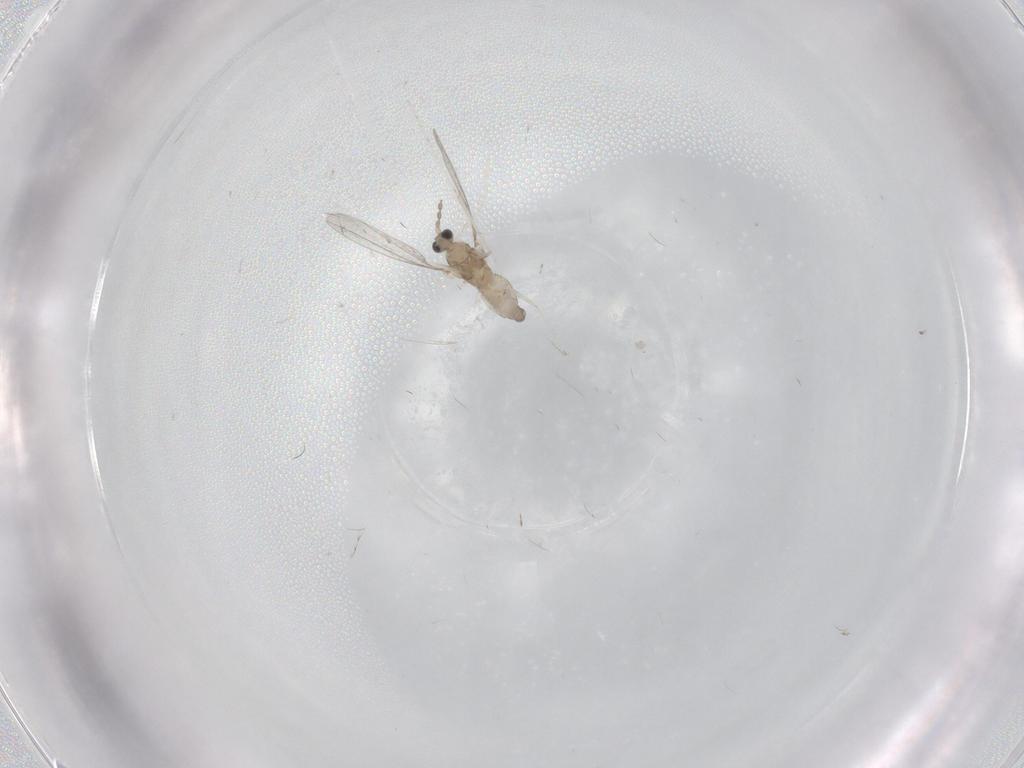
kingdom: Animalia
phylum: Arthropoda
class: Insecta
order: Diptera
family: Cecidomyiidae
